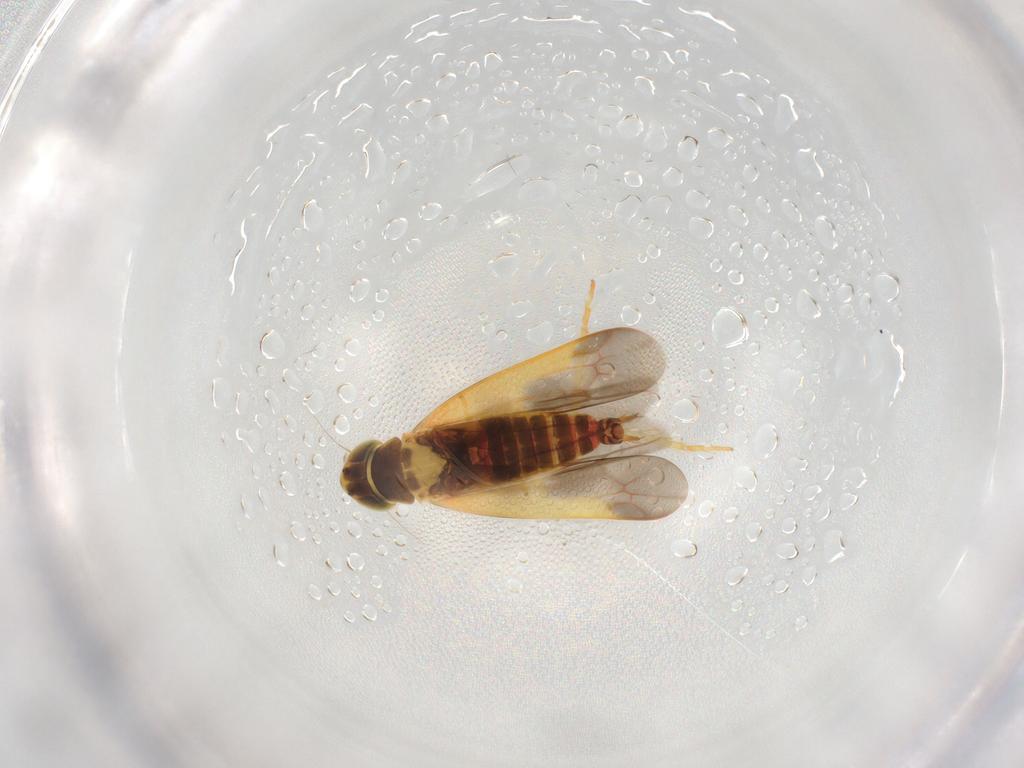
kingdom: Animalia
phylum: Arthropoda
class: Insecta
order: Hemiptera
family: Cicadellidae
